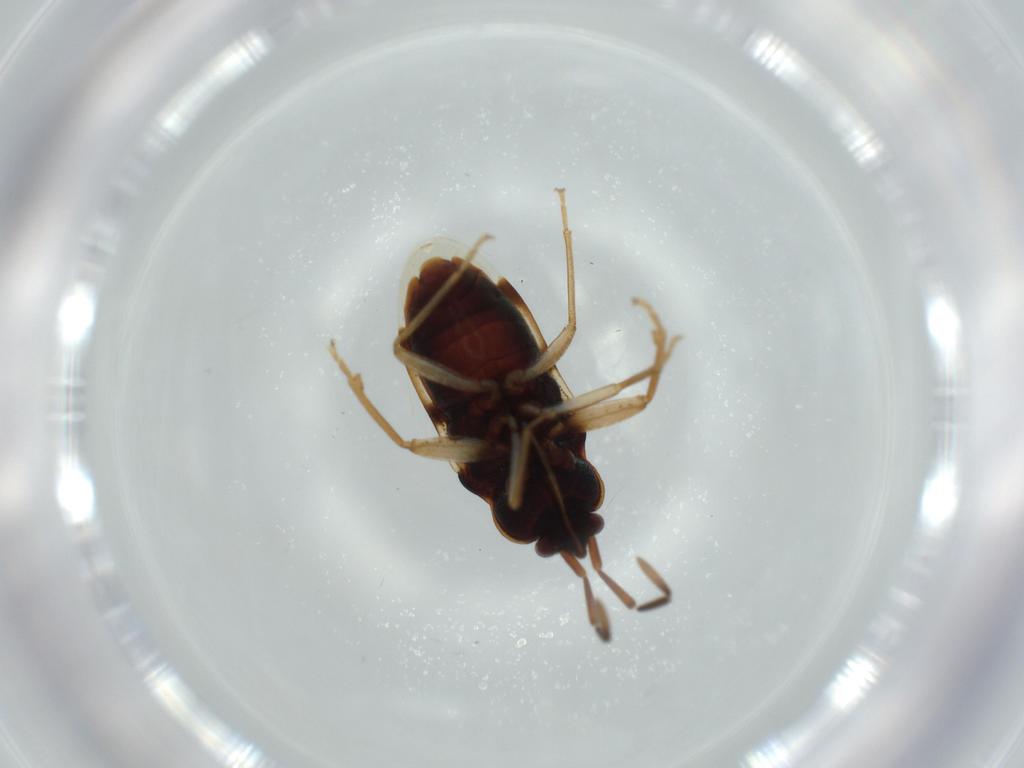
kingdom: Animalia
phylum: Arthropoda
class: Insecta
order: Hemiptera
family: Rhyparochromidae
